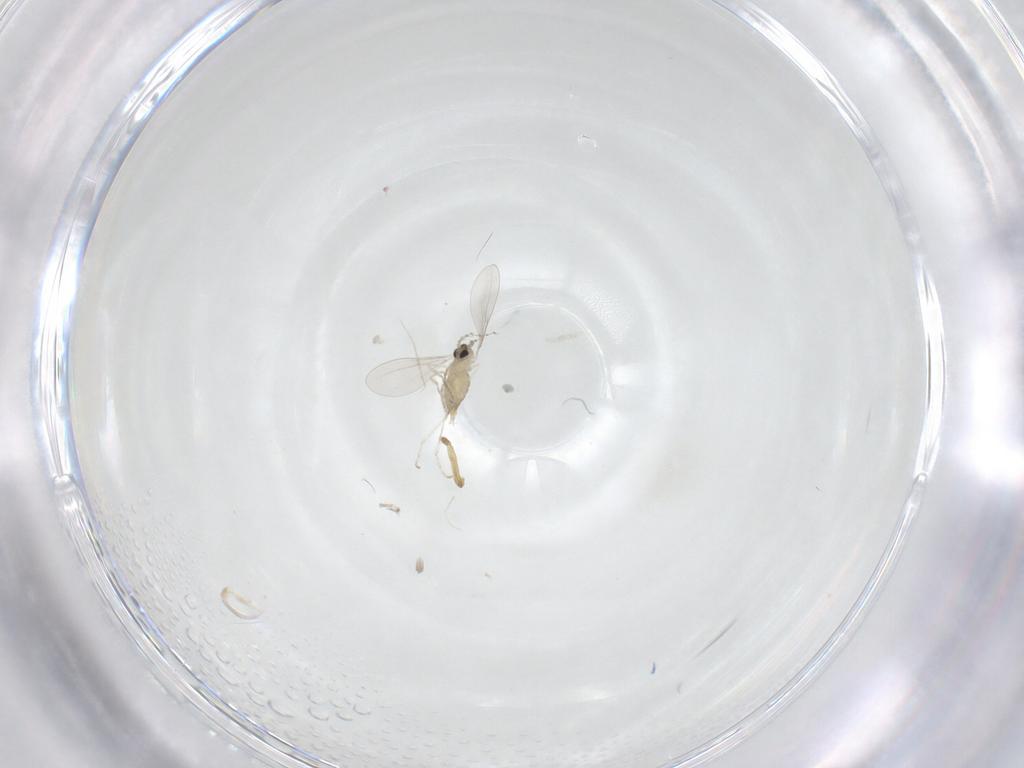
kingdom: Animalia
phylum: Arthropoda
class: Insecta
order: Diptera
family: Cecidomyiidae
